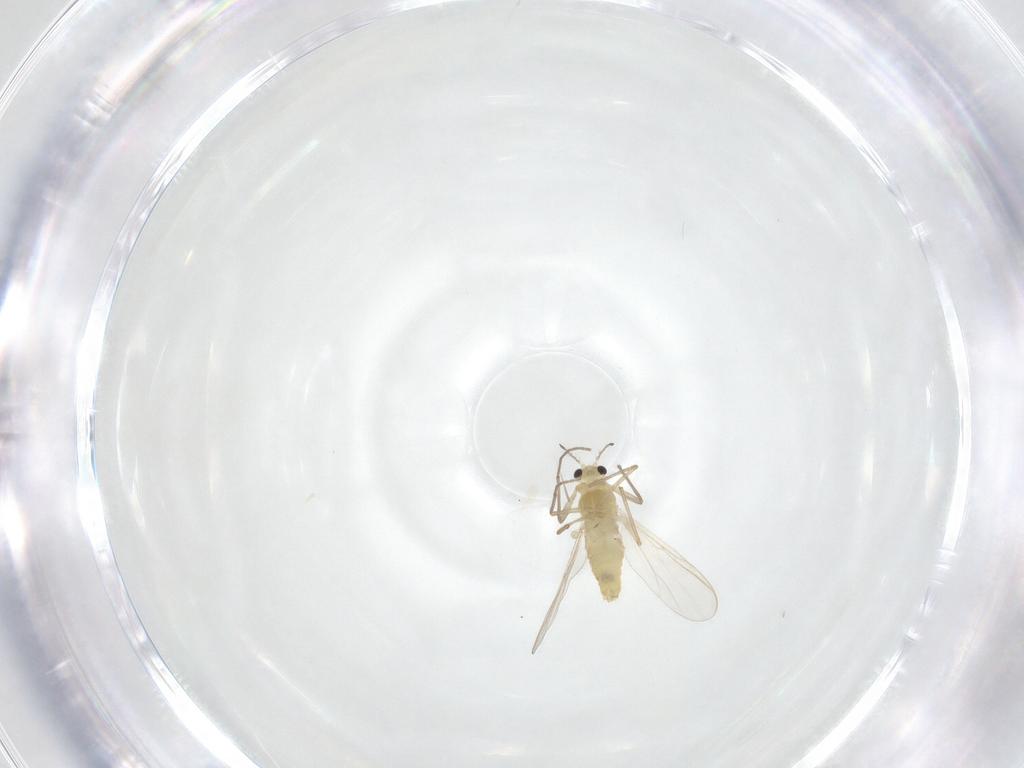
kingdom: Animalia
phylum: Arthropoda
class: Insecta
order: Diptera
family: Chironomidae
